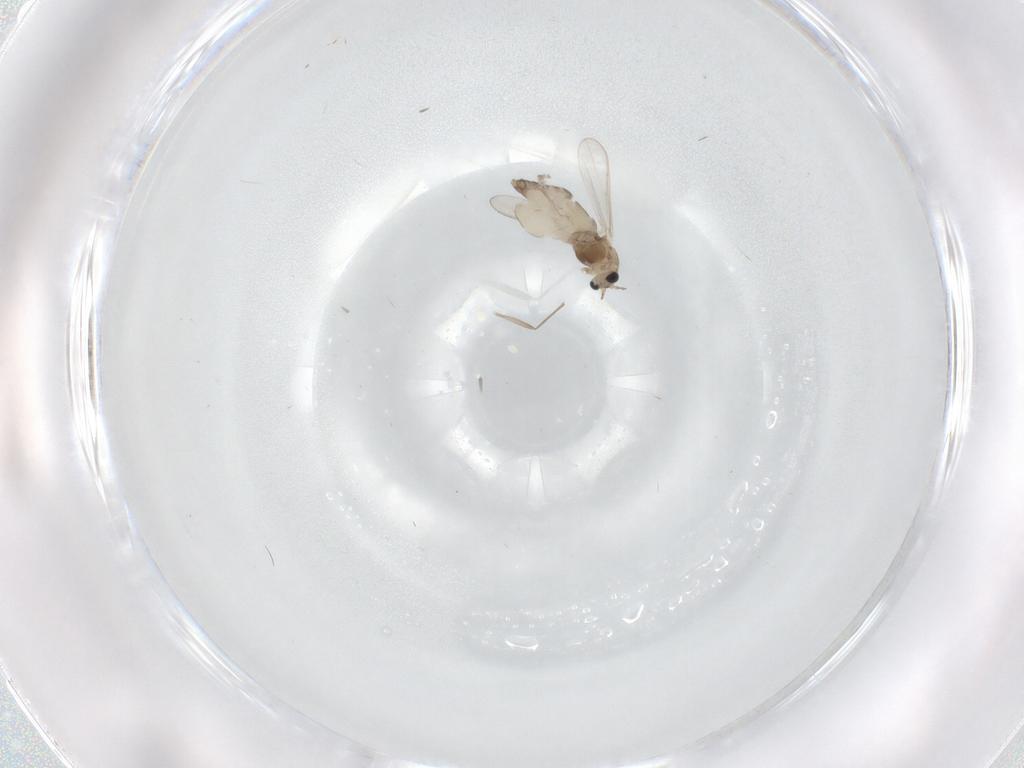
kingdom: Animalia
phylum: Arthropoda
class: Insecta
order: Diptera
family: Chironomidae
